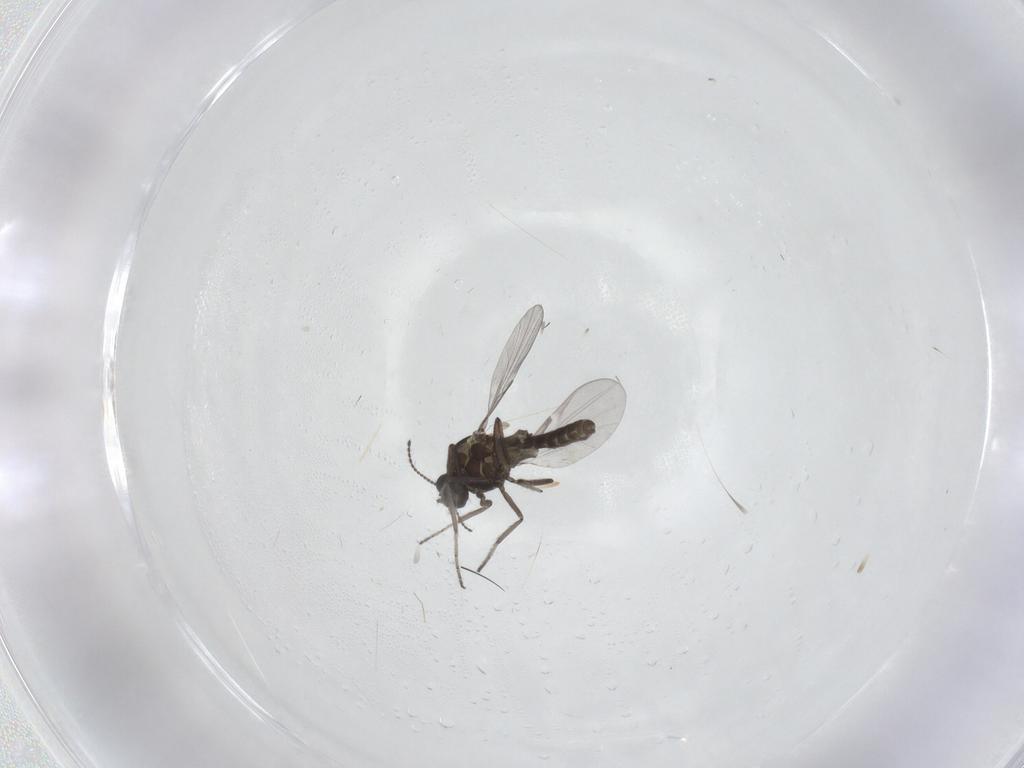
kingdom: Animalia
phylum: Arthropoda
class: Insecta
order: Diptera
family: Ceratopogonidae
